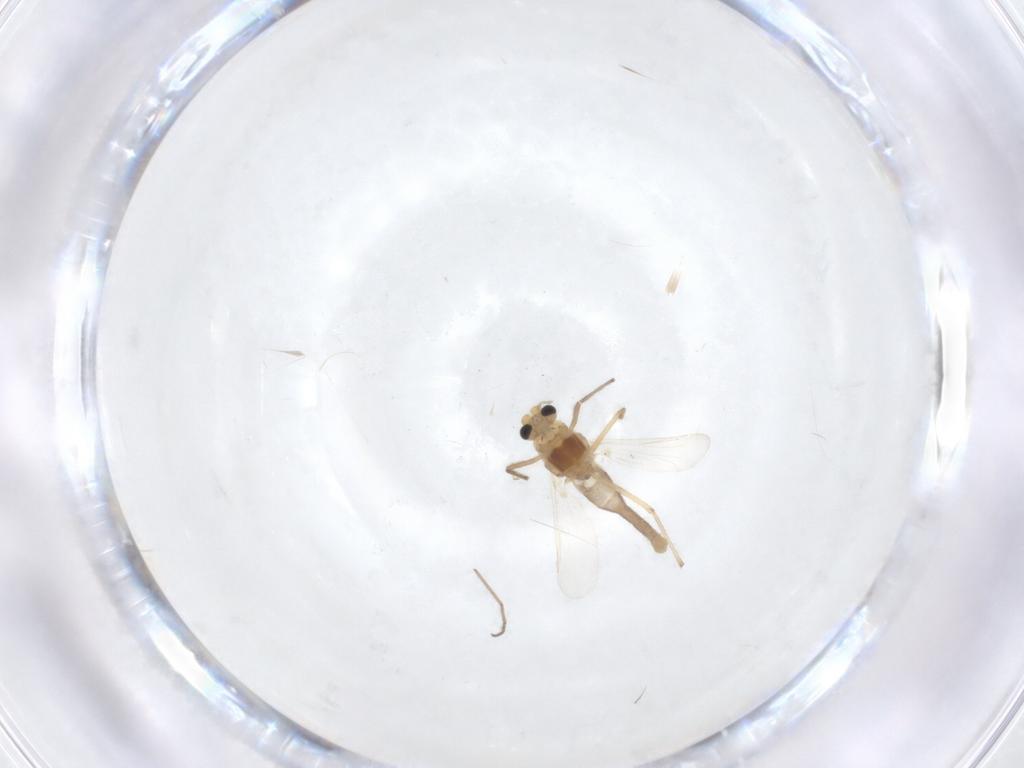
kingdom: Animalia
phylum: Arthropoda
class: Insecta
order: Diptera
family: Chironomidae
